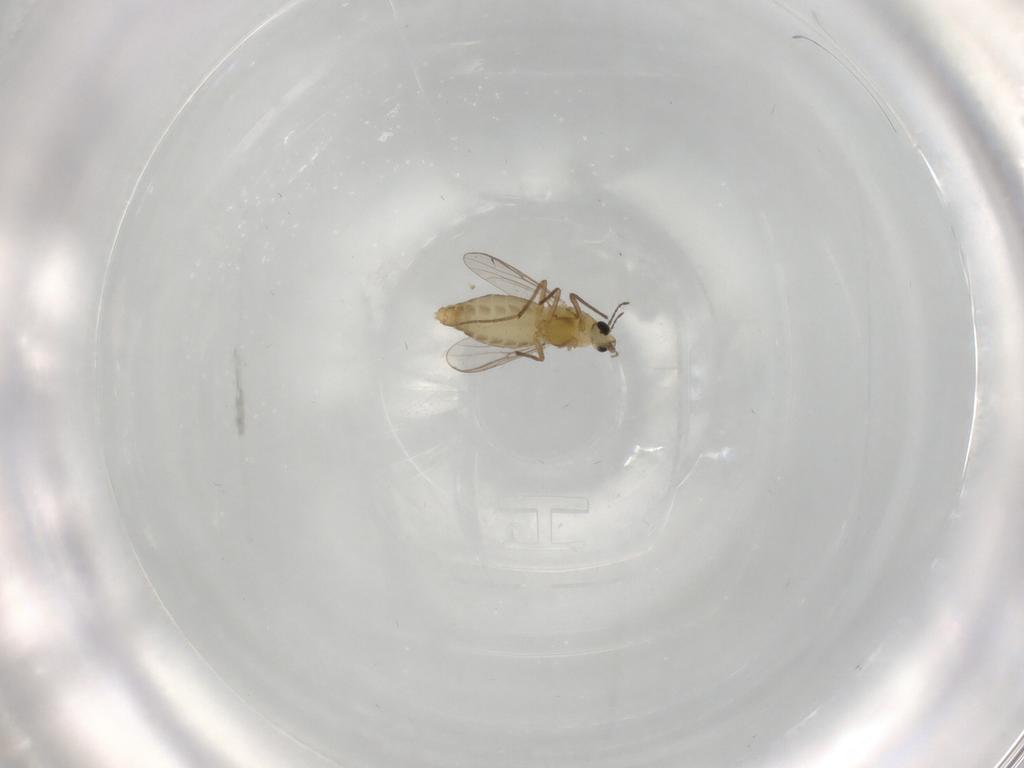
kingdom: Animalia
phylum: Arthropoda
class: Insecta
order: Diptera
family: Chironomidae
